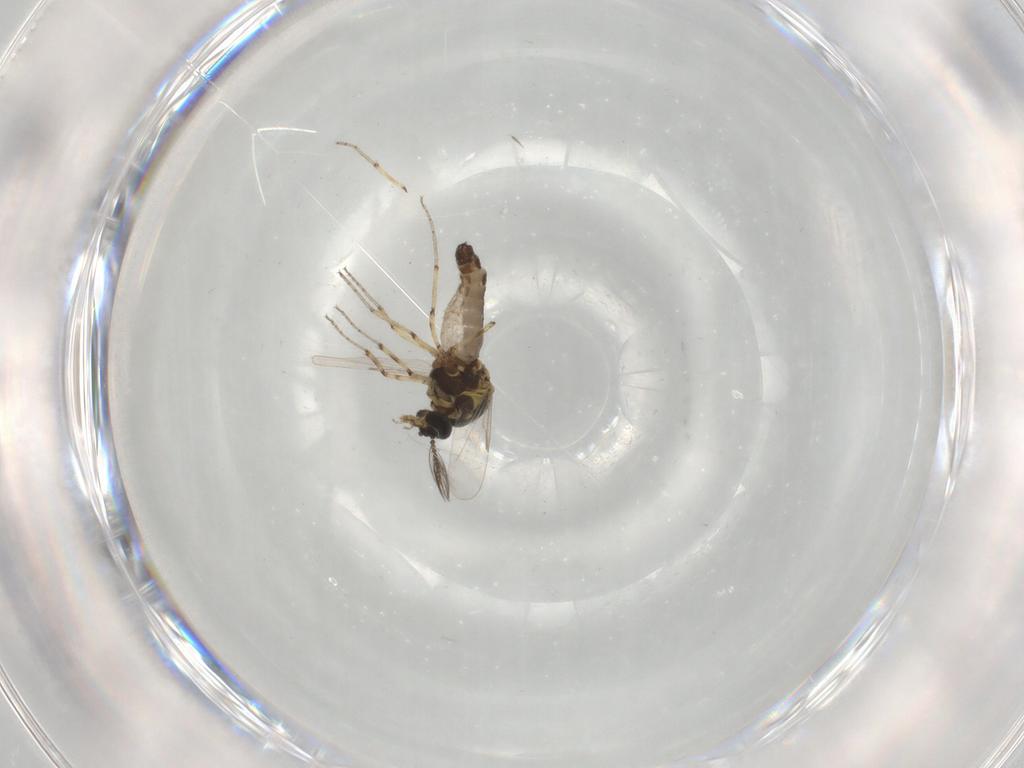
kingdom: Animalia
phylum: Arthropoda
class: Insecta
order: Diptera
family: Ceratopogonidae
